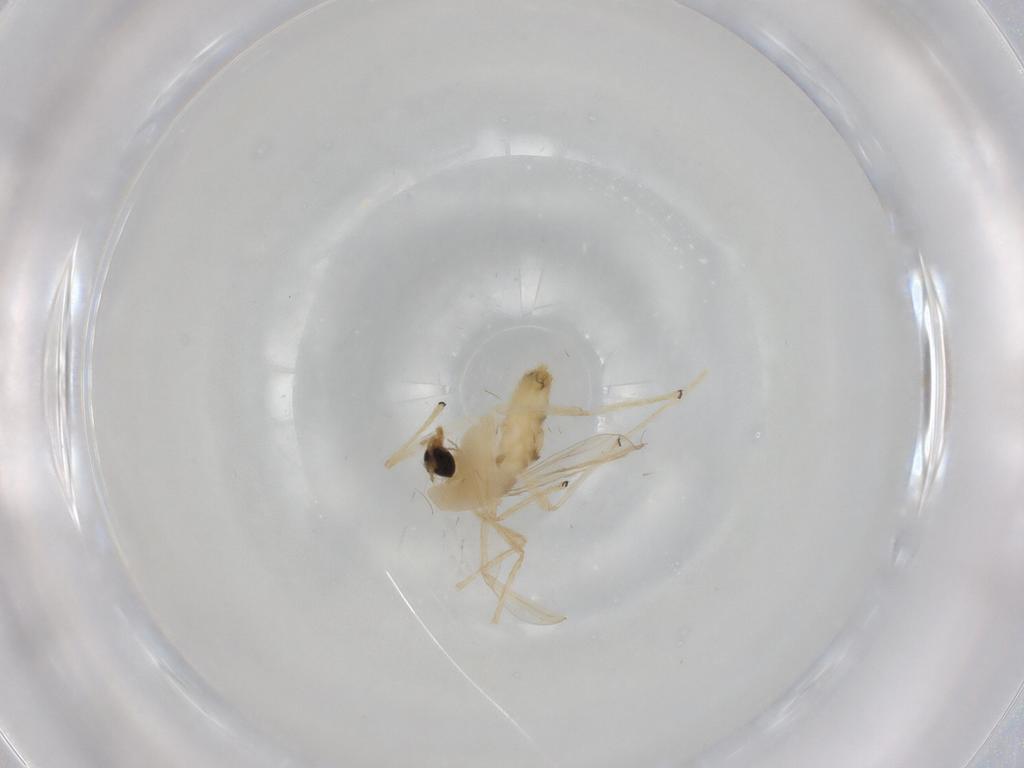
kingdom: Animalia
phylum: Arthropoda
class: Insecta
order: Diptera
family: Chironomidae
